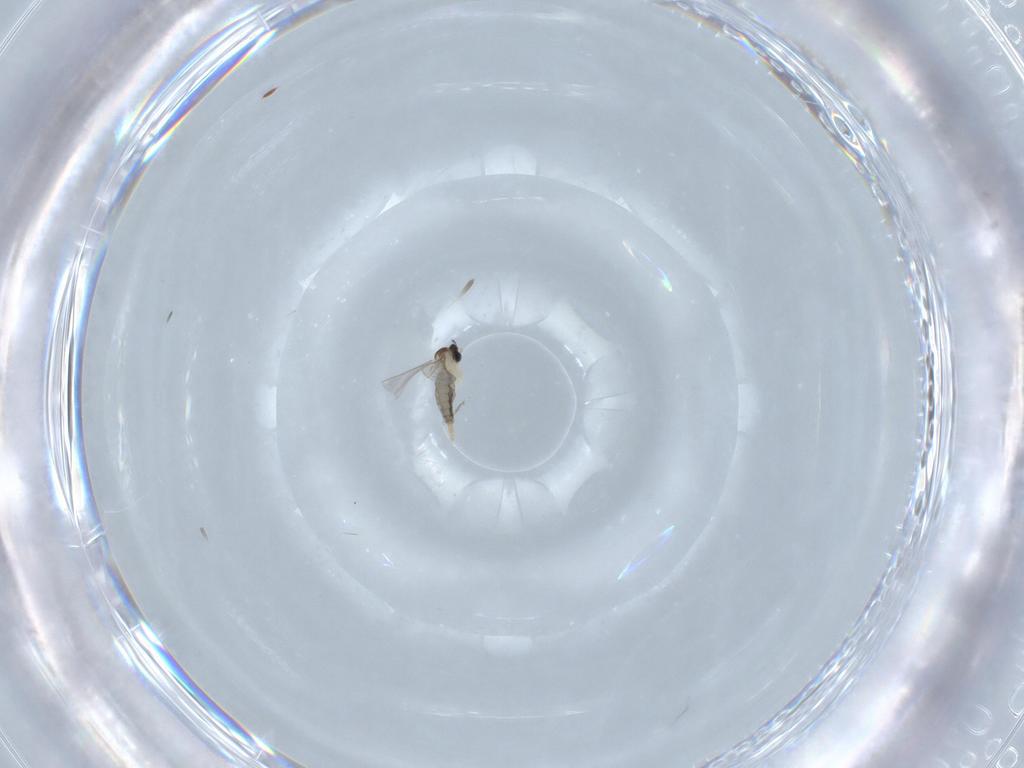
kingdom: Animalia
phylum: Arthropoda
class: Insecta
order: Diptera
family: Cecidomyiidae
